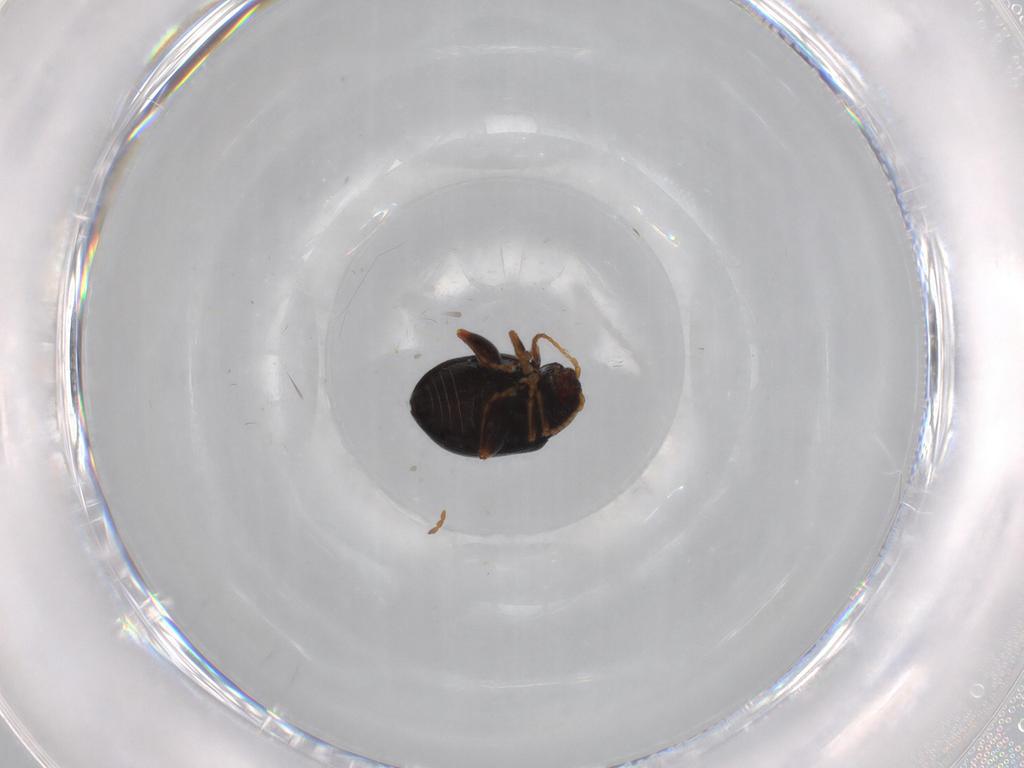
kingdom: Animalia
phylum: Arthropoda
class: Insecta
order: Coleoptera
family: Chrysomelidae
